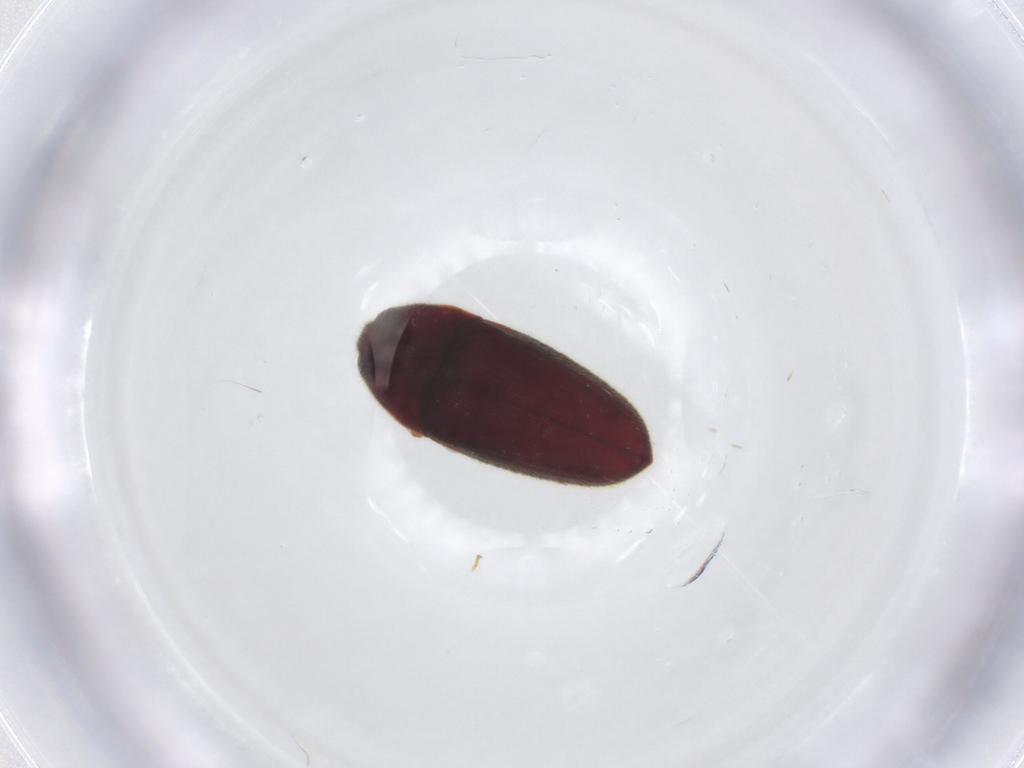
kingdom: Animalia
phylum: Arthropoda
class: Insecta
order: Coleoptera
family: Throscidae
